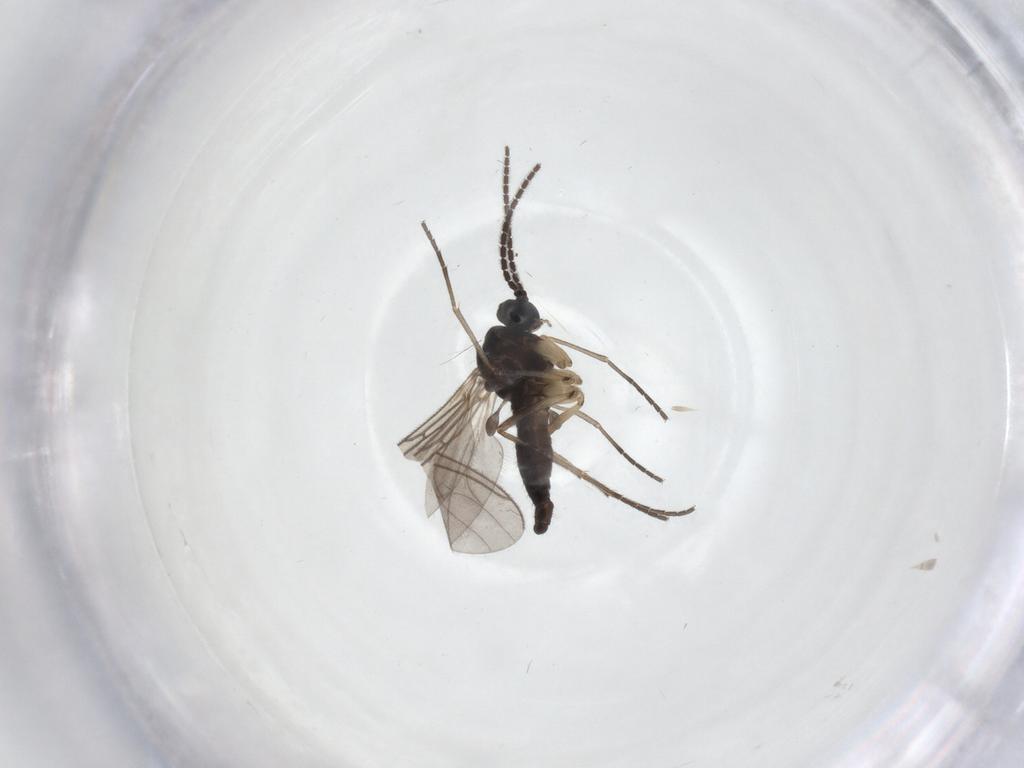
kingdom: Animalia
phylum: Arthropoda
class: Insecta
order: Diptera
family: Sciaridae
